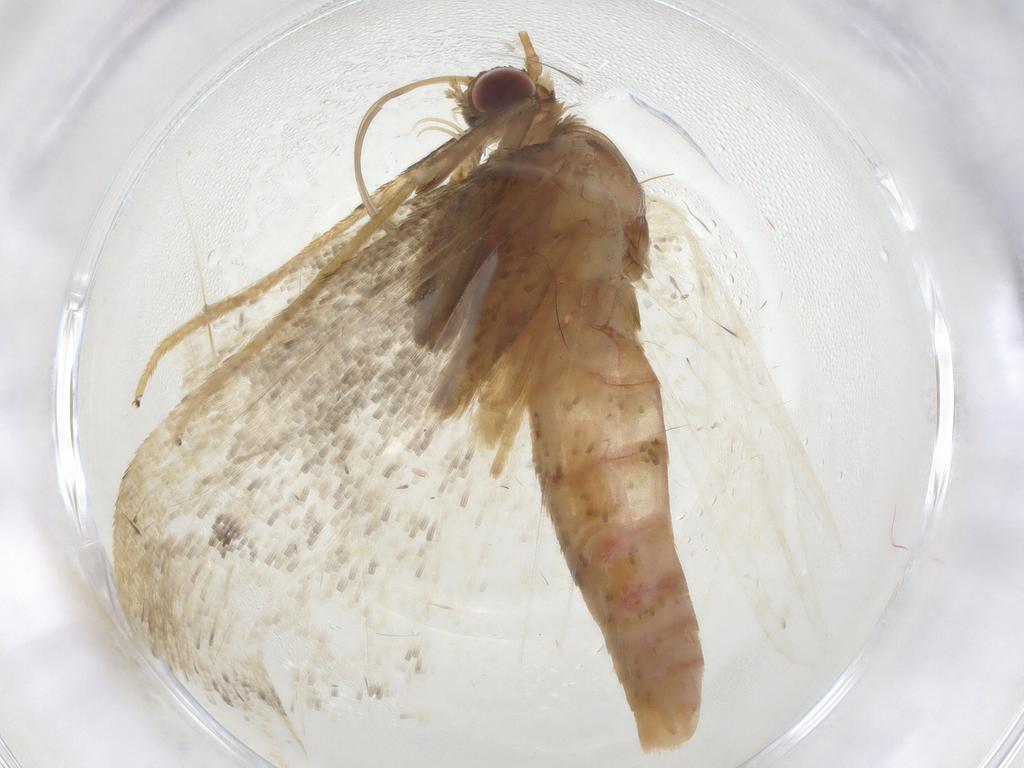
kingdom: Animalia
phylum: Arthropoda
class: Insecta
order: Lepidoptera
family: Geometridae
